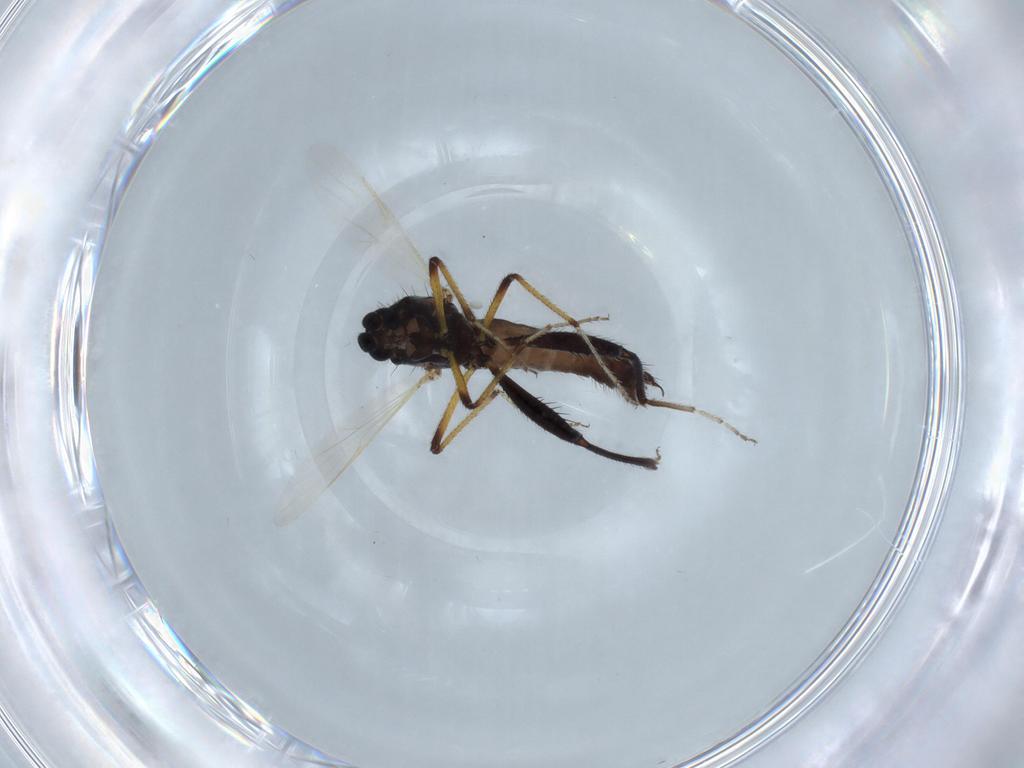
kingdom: Animalia
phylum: Arthropoda
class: Insecta
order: Diptera
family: Ceratopogonidae
